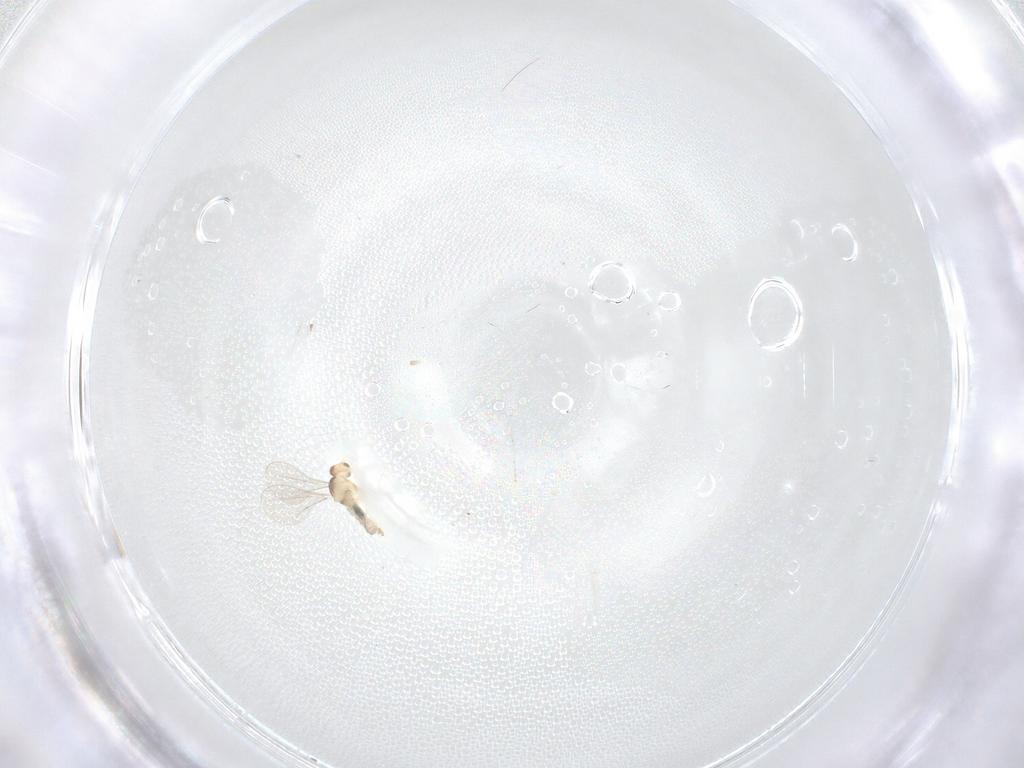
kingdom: Animalia
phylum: Arthropoda
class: Insecta
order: Diptera
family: Cecidomyiidae
